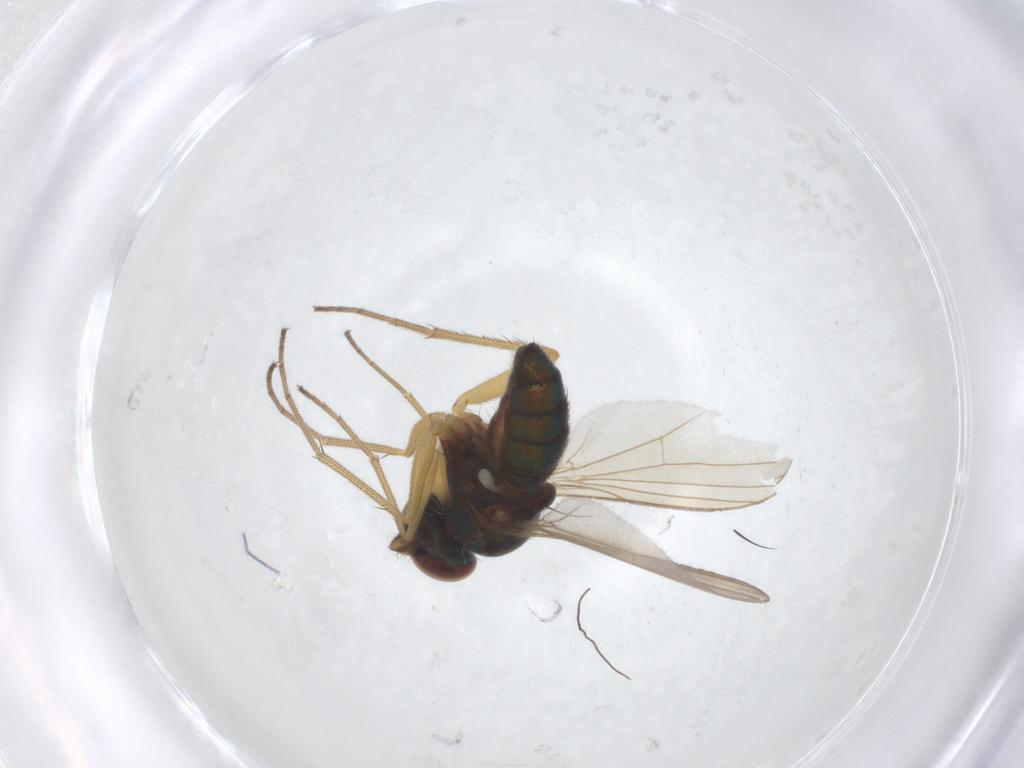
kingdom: Animalia
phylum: Arthropoda
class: Insecta
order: Diptera
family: Dolichopodidae
